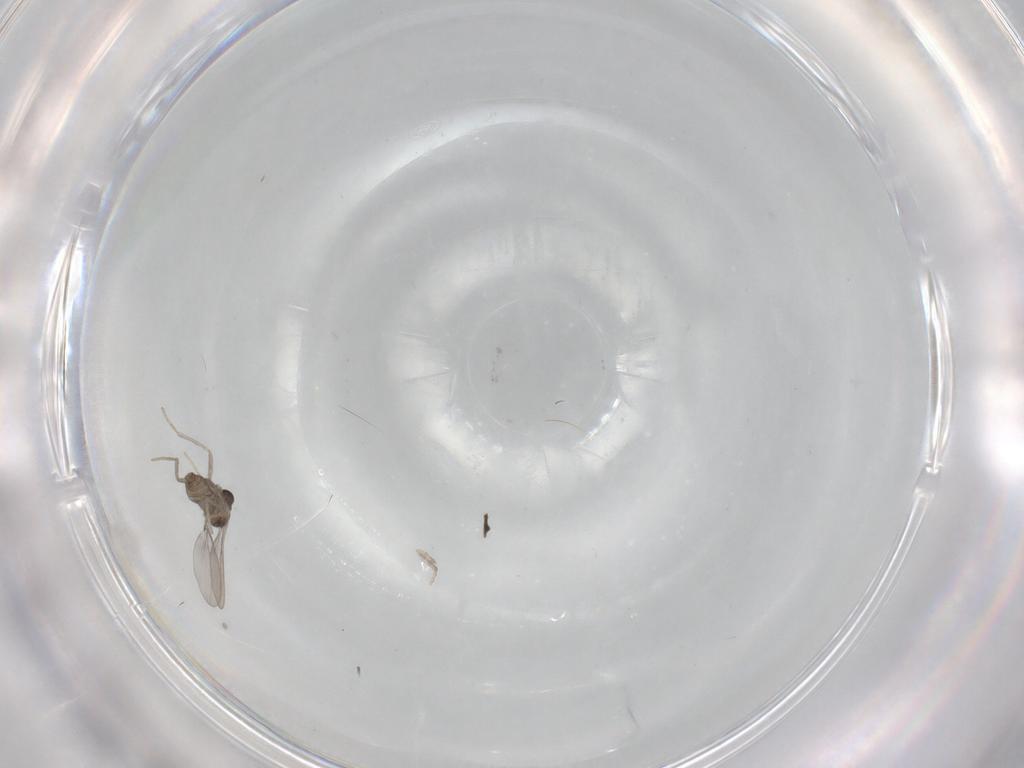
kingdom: Animalia
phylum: Arthropoda
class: Insecta
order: Diptera
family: Cecidomyiidae
